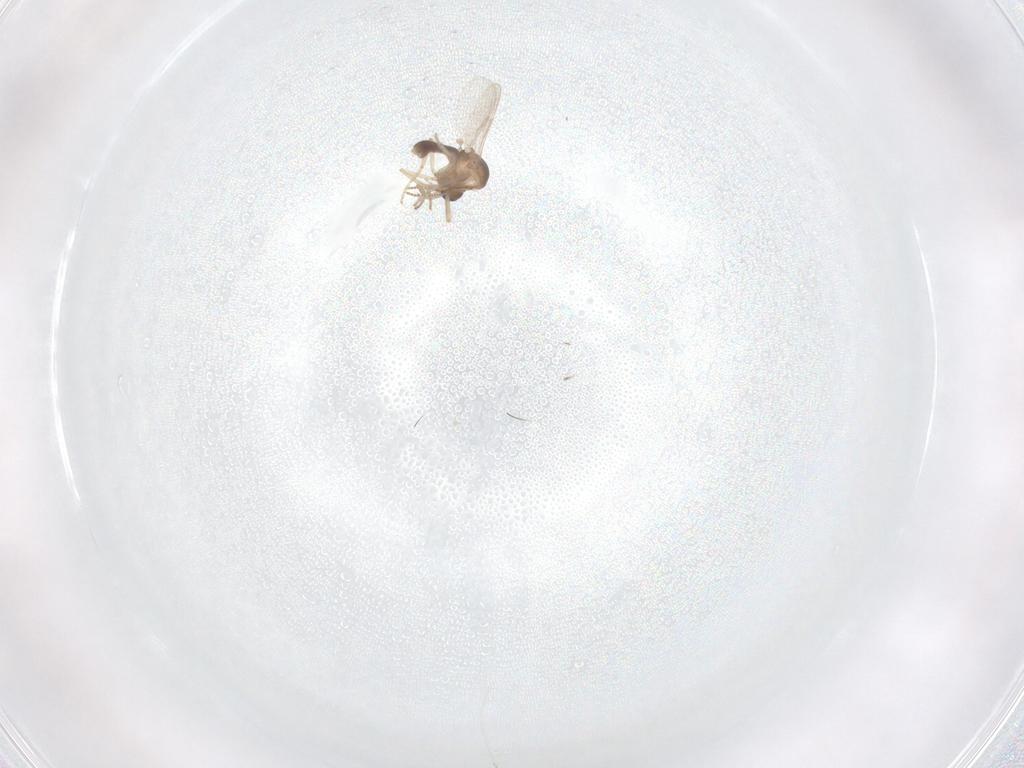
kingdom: Animalia
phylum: Arthropoda
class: Insecta
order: Diptera
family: Ceratopogonidae
